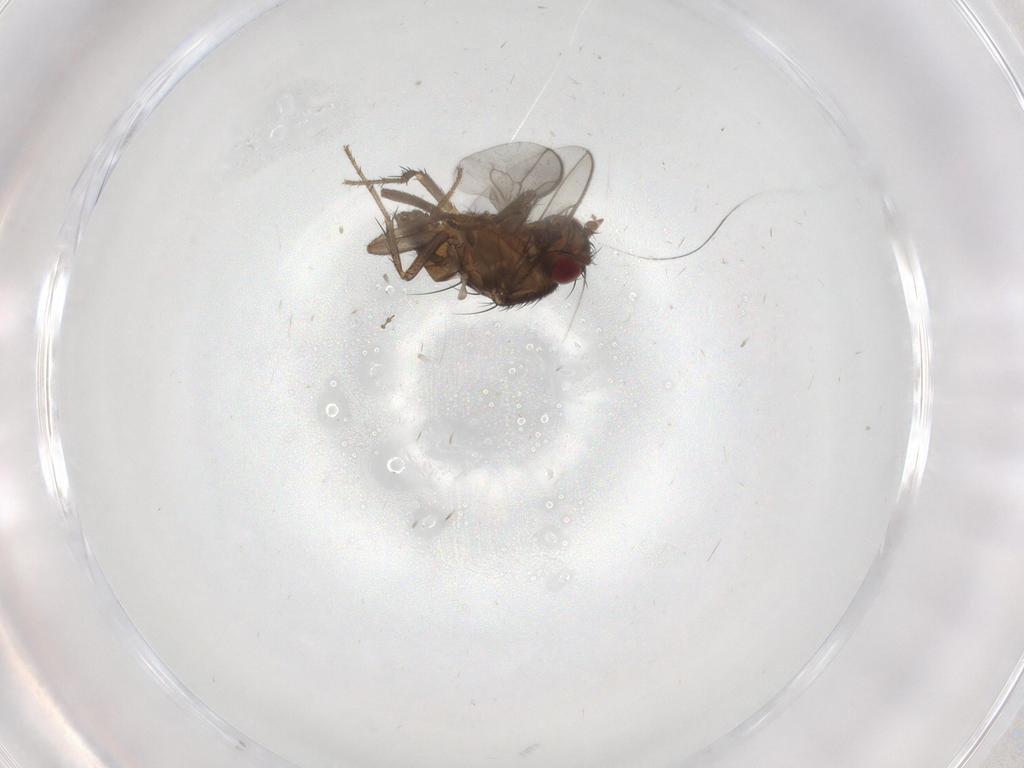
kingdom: Animalia
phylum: Arthropoda
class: Insecta
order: Diptera
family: Sphaeroceridae
